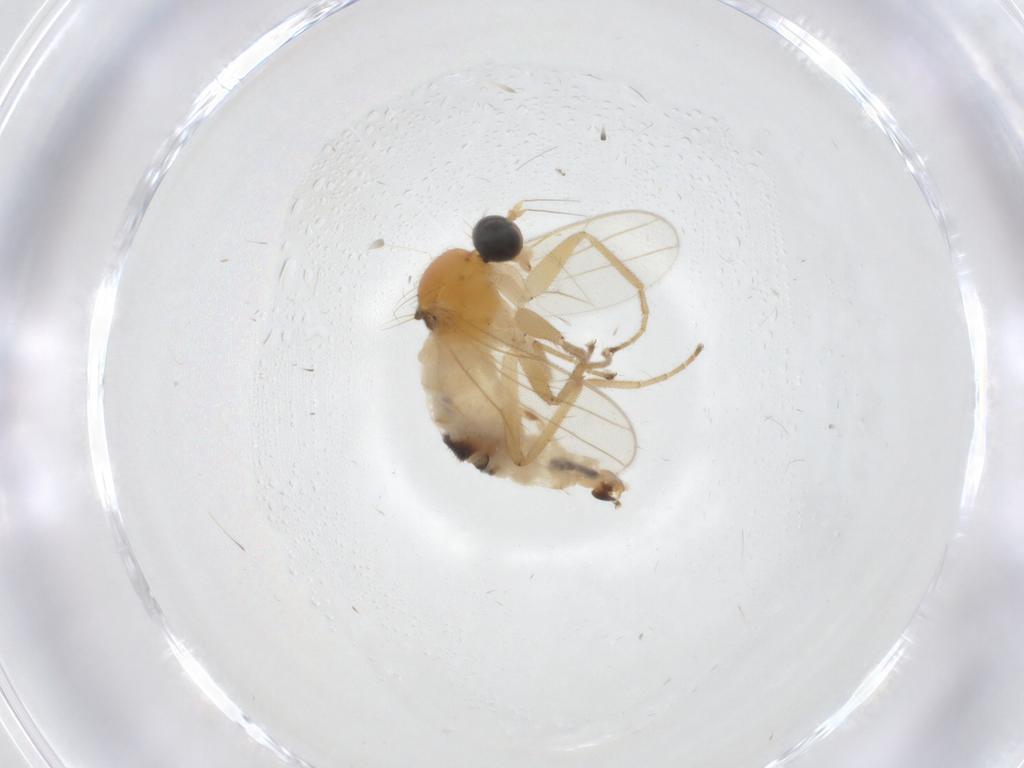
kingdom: Animalia
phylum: Arthropoda
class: Insecta
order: Diptera
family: Hybotidae
